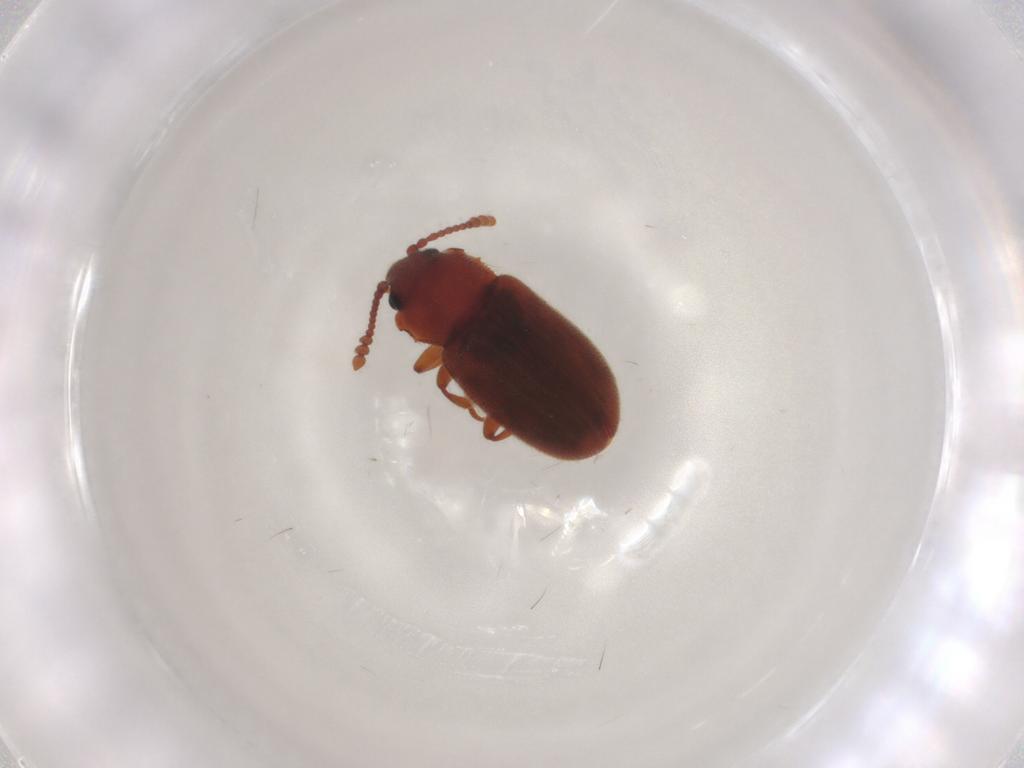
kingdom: Animalia
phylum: Arthropoda
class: Insecta
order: Coleoptera
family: Cryptophagidae
